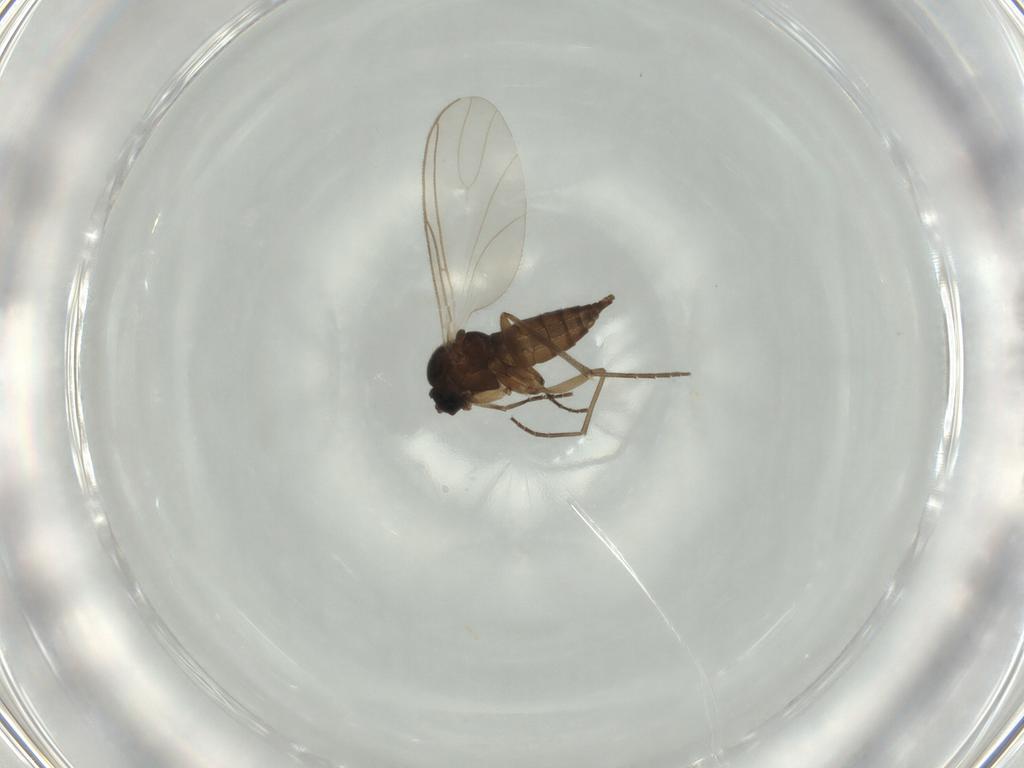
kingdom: Animalia
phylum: Arthropoda
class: Insecta
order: Diptera
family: Sciaridae
